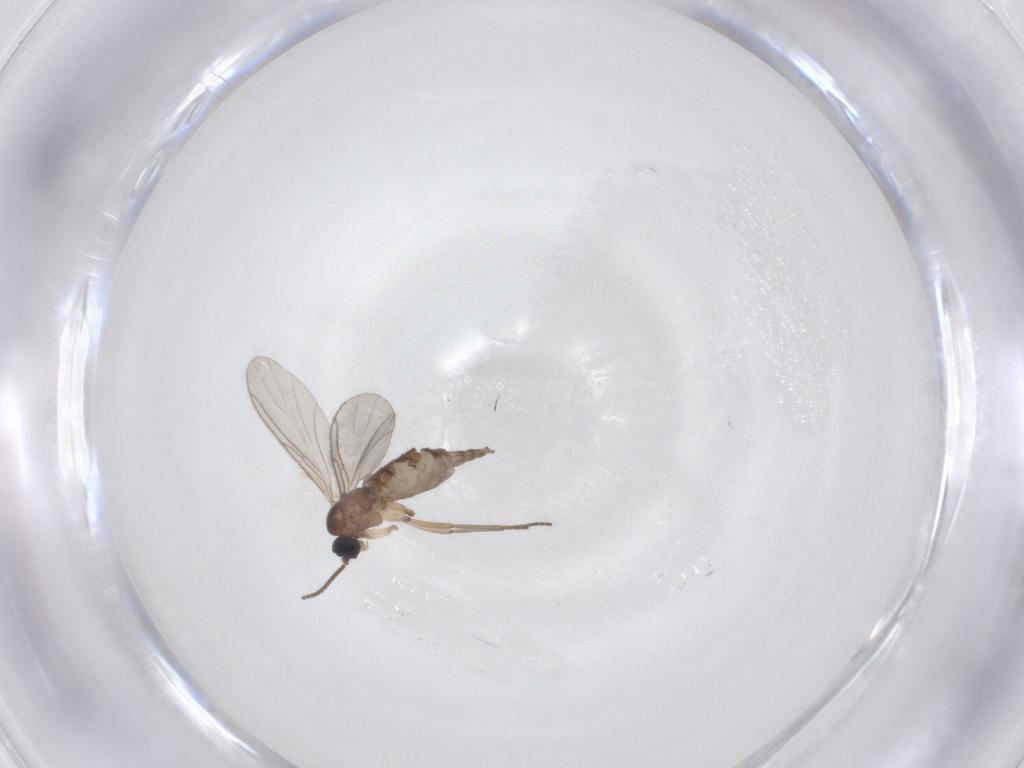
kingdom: Animalia
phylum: Arthropoda
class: Insecta
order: Diptera
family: Sciaridae
